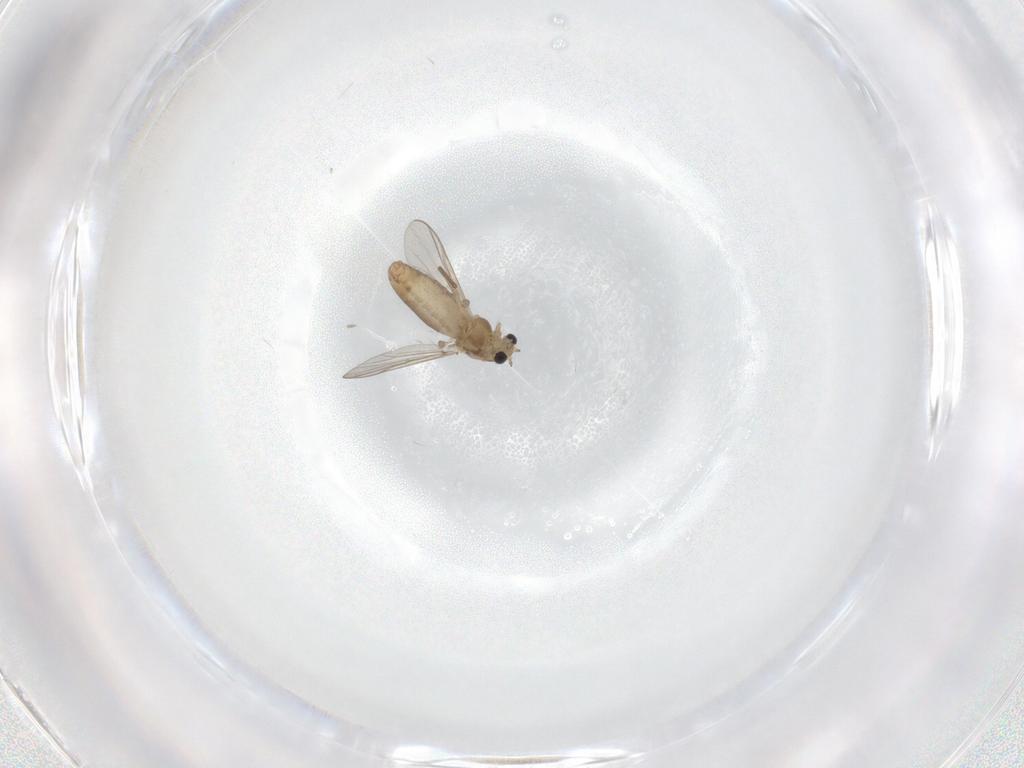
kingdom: Animalia
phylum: Arthropoda
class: Insecta
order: Diptera
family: Chironomidae
